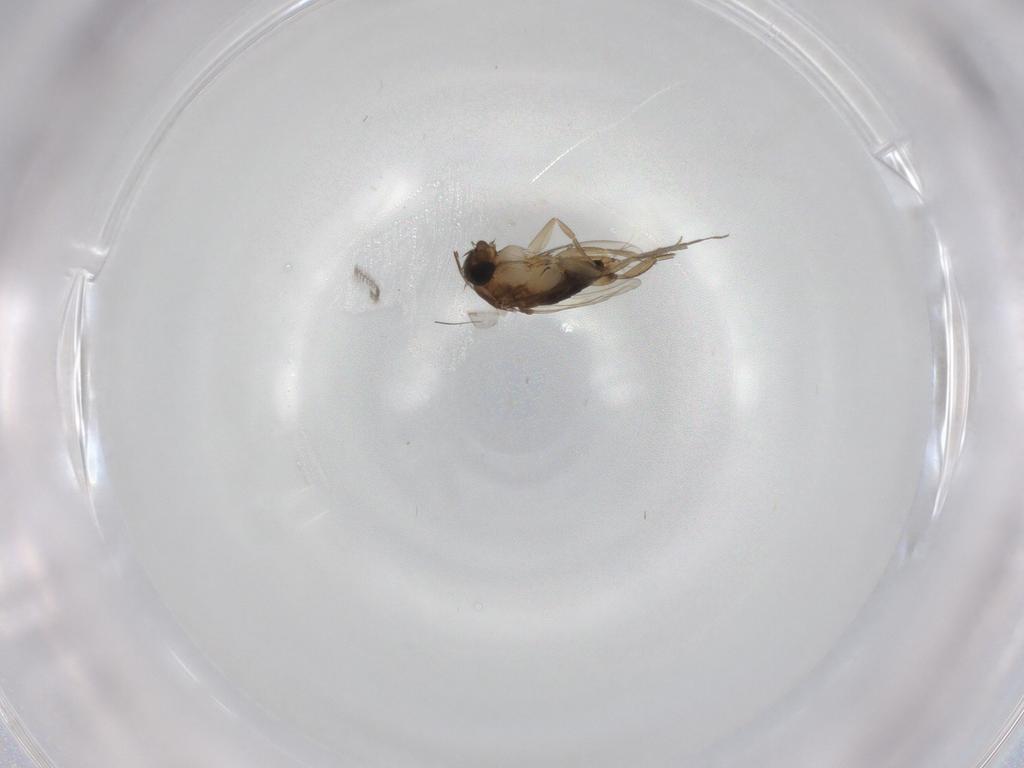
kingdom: Animalia
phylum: Arthropoda
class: Insecta
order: Diptera
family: Phoridae
